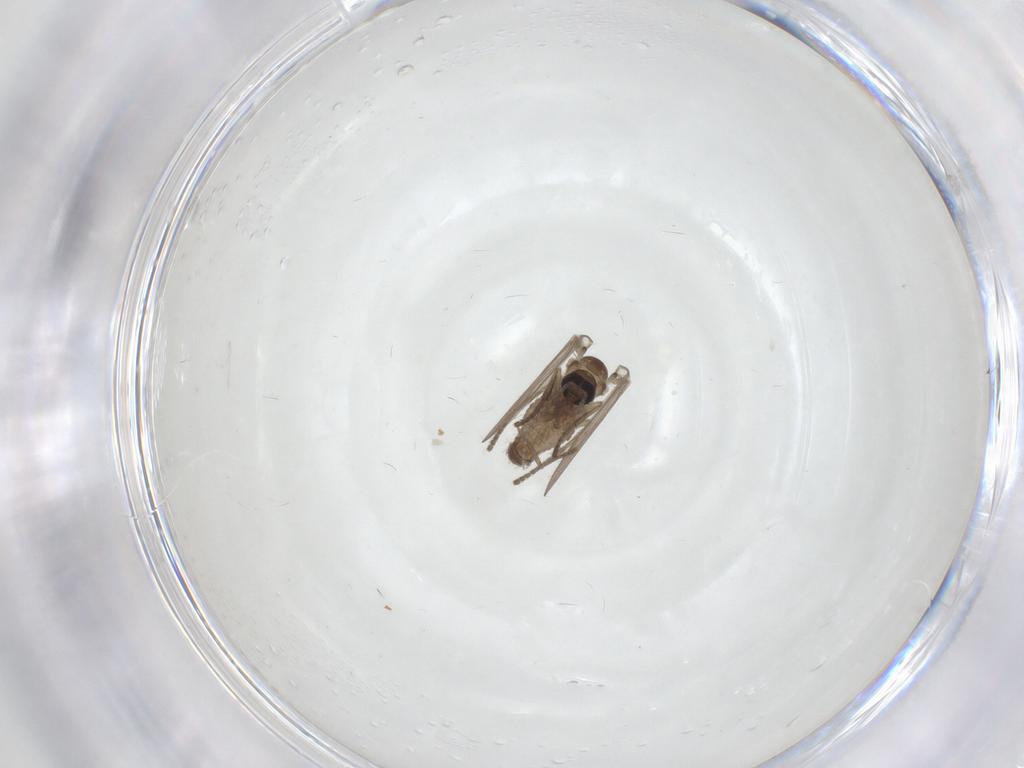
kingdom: Animalia
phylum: Arthropoda
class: Insecta
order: Diptera
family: Psychodidae
